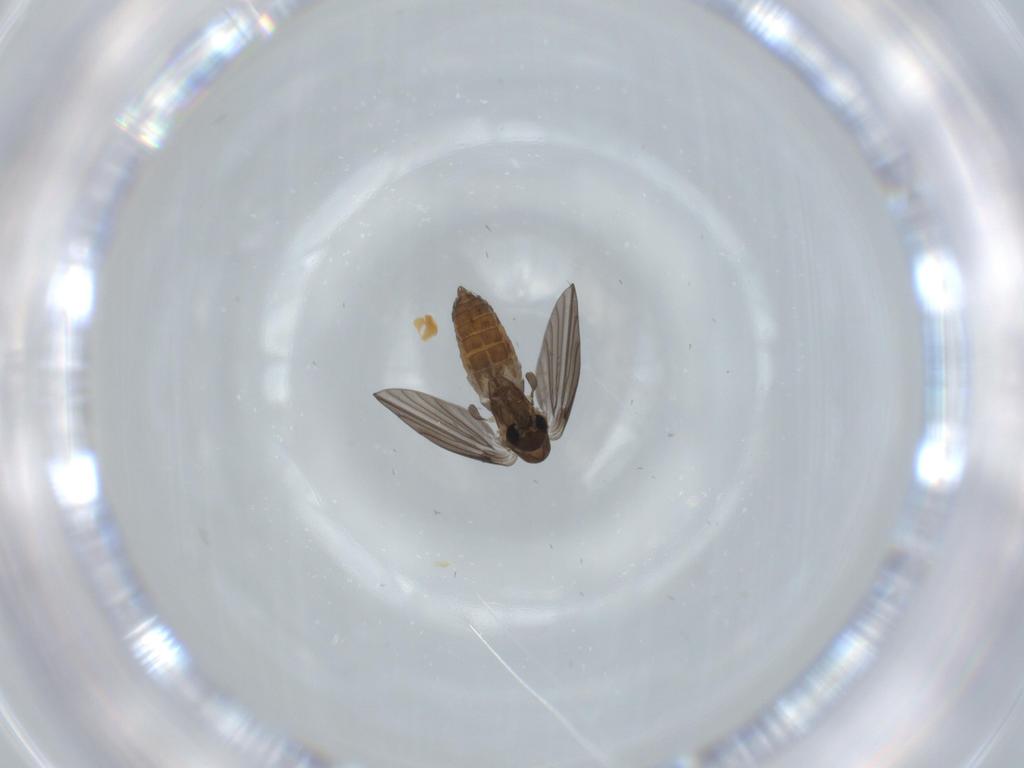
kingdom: Animalia
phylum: Arthropoda
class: Insecta
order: Diptera
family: Psychodidae
